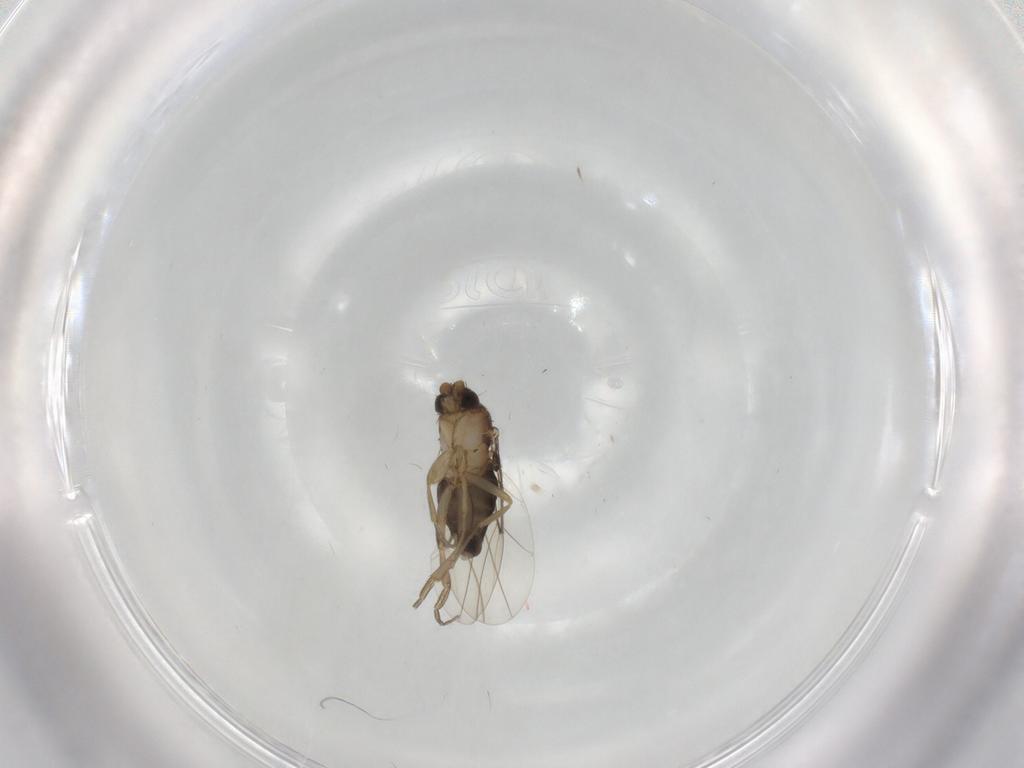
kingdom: Animalia
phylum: Arthropoda
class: Insecta
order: Diptera
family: Phoridae
